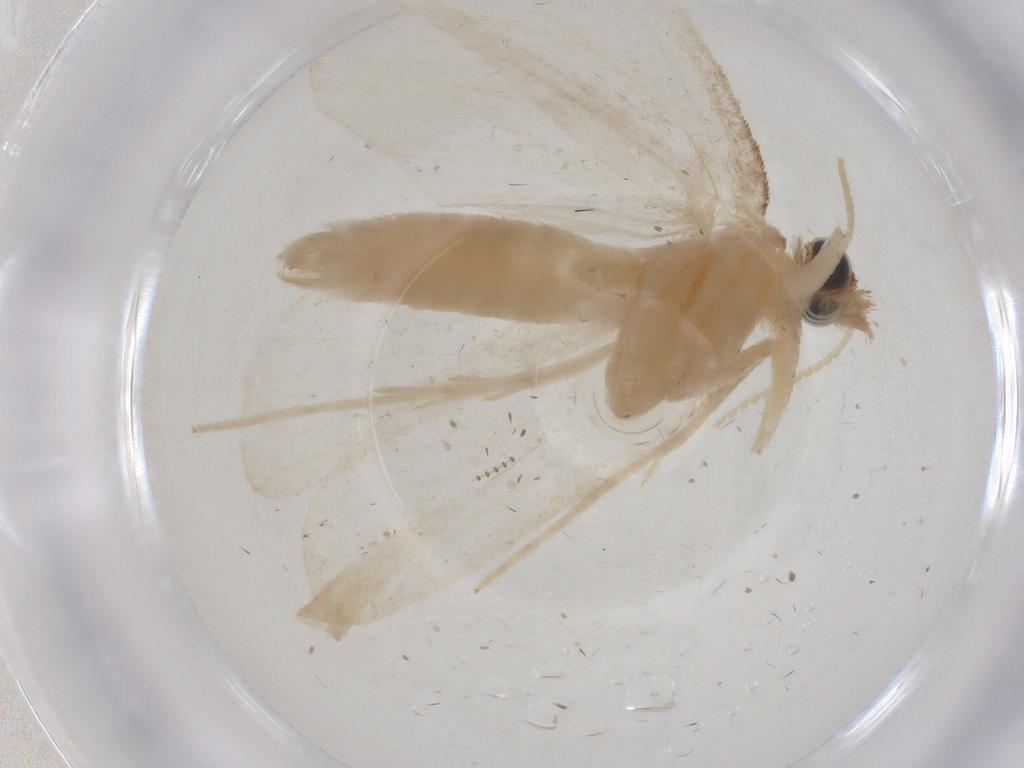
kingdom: Animalia
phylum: Arthropoda
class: Insecta
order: Lepidoptera
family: Crambidae
